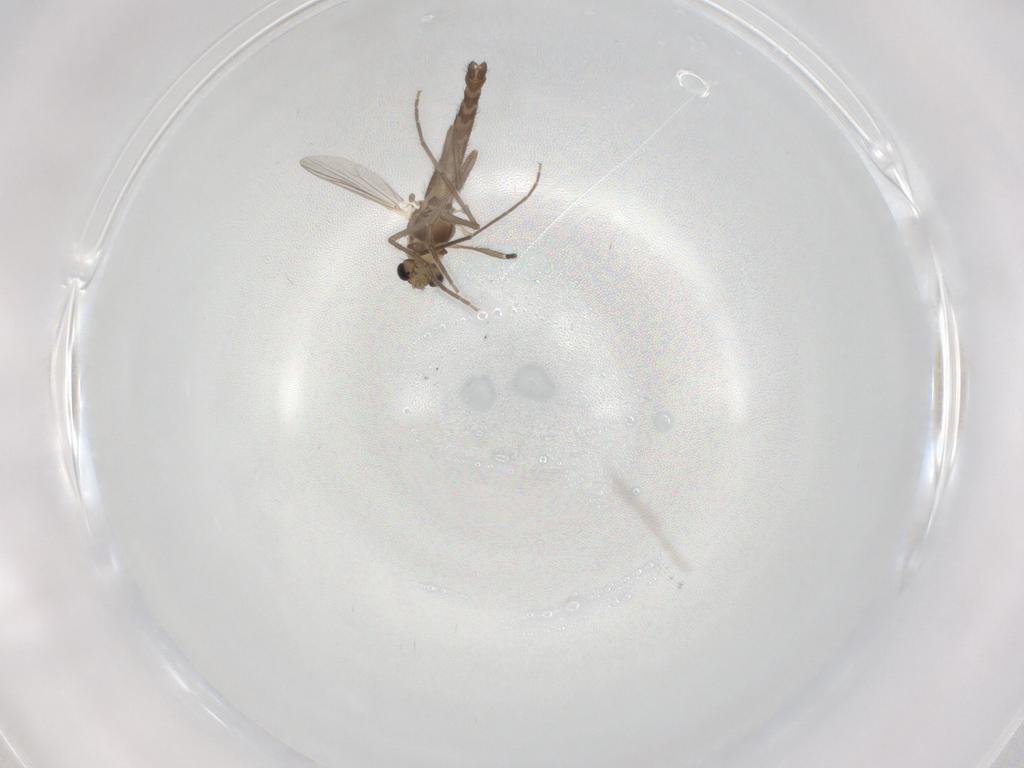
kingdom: Animalia
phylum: Arthropoda
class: Insecta
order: Diptera
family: Chironomidae
